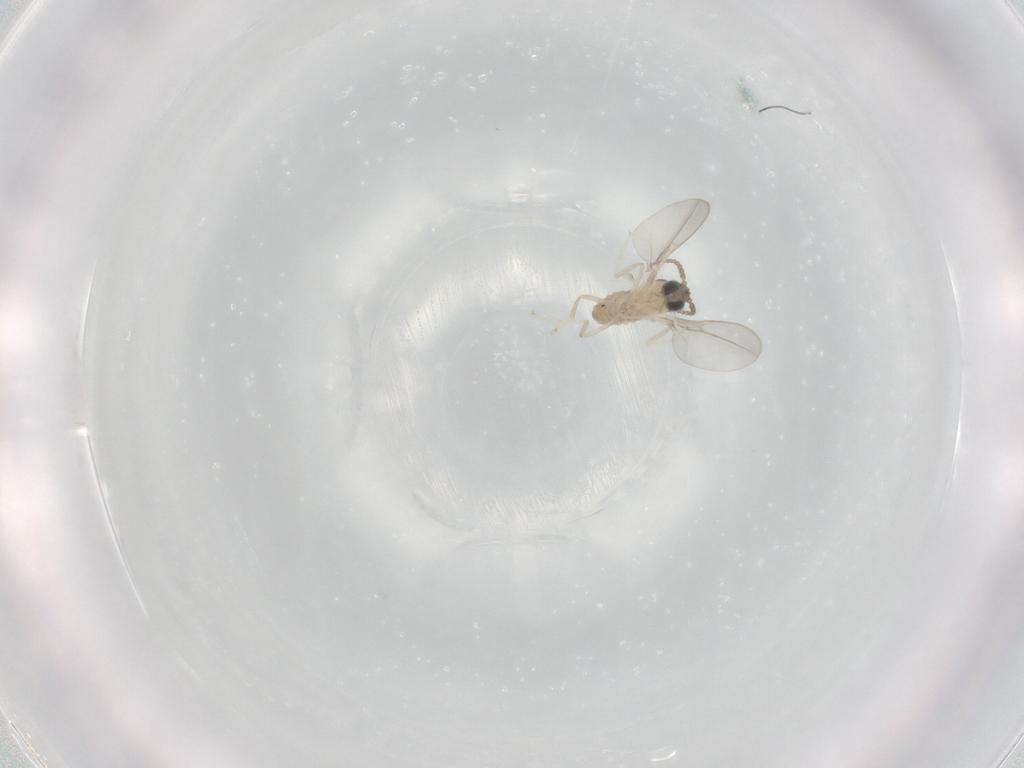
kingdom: Animalia
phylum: Arthropoda
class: Insecta
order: Diptera
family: Cecidomyiidae
